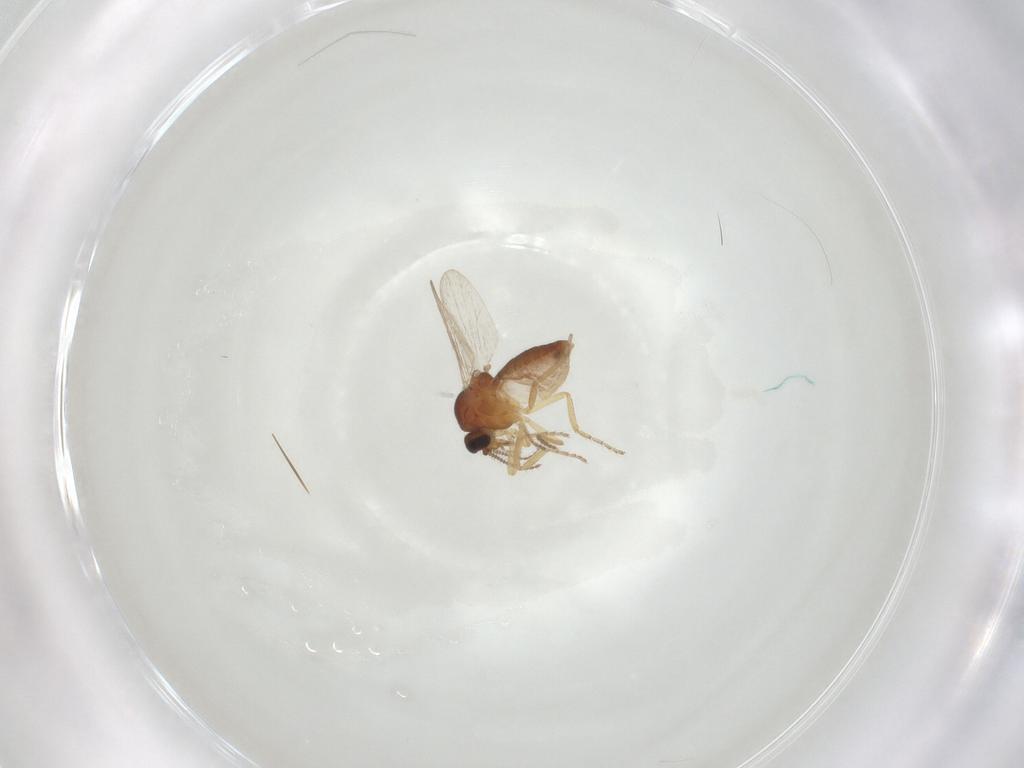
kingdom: Animalia
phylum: Arthropoda
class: Insecta
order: Diptera
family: Ceratopogonidae
